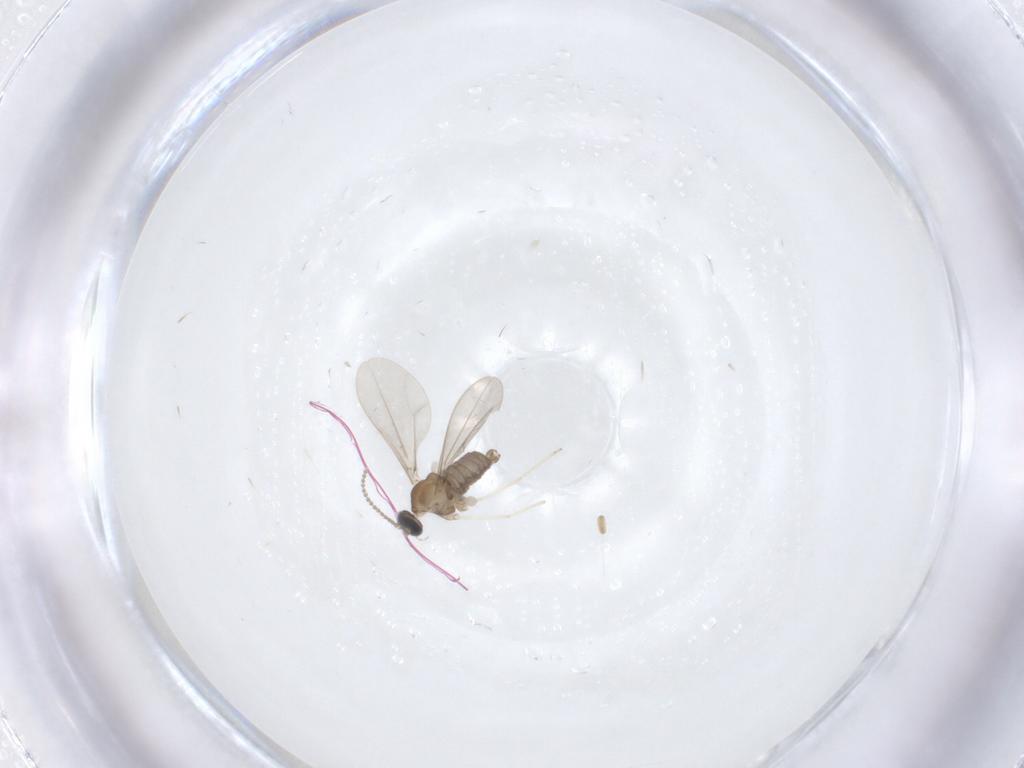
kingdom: Animalia
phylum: Arthropoda
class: Insecta
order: Diptera
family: Cecidomyiidae
